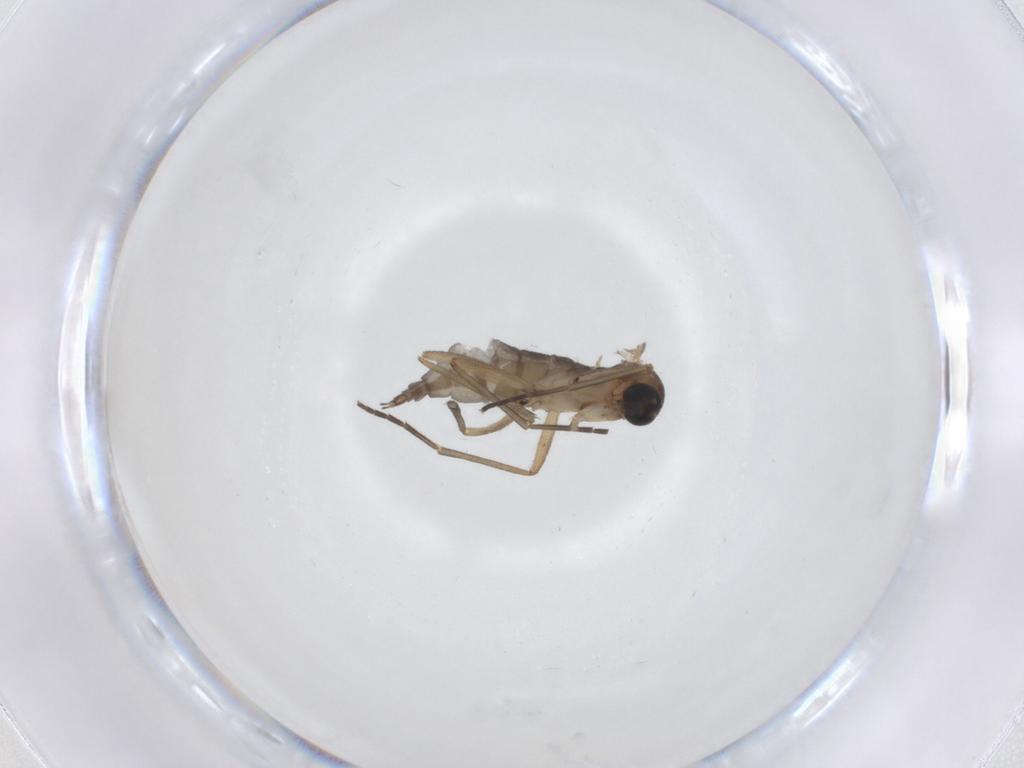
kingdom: Animalia
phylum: Arthropoda
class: Insecta
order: Diptera
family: Sciaridae
